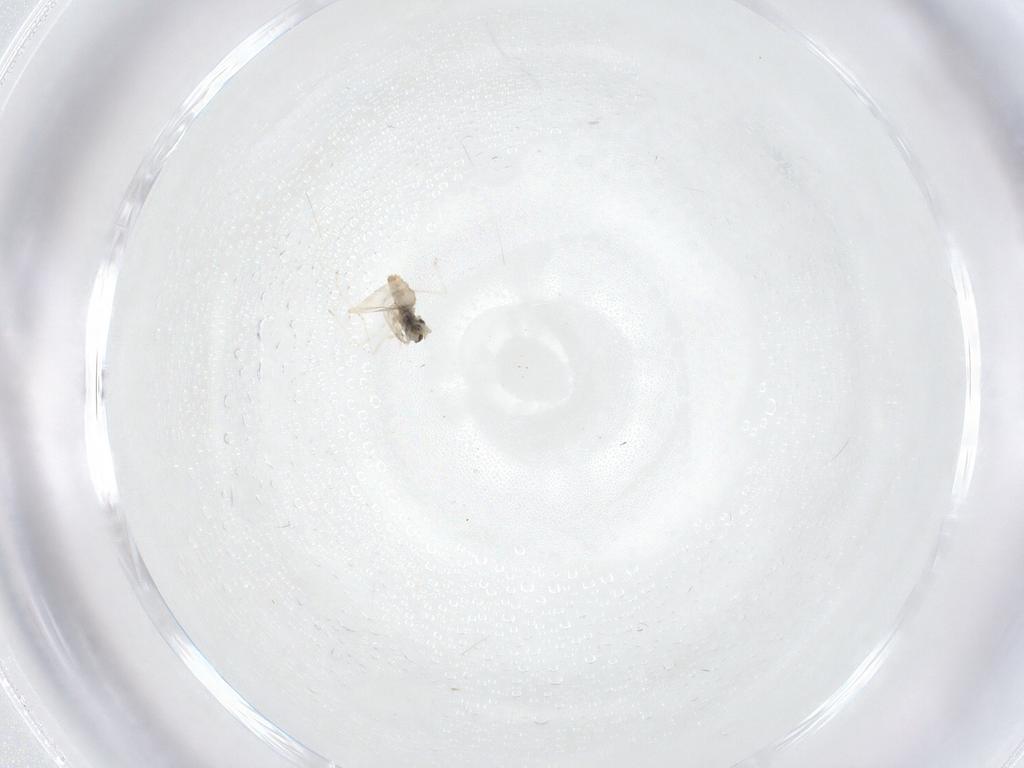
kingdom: Animalia
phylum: Arthropoda
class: Insecta
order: Diptera
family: Cecidomyiidae
